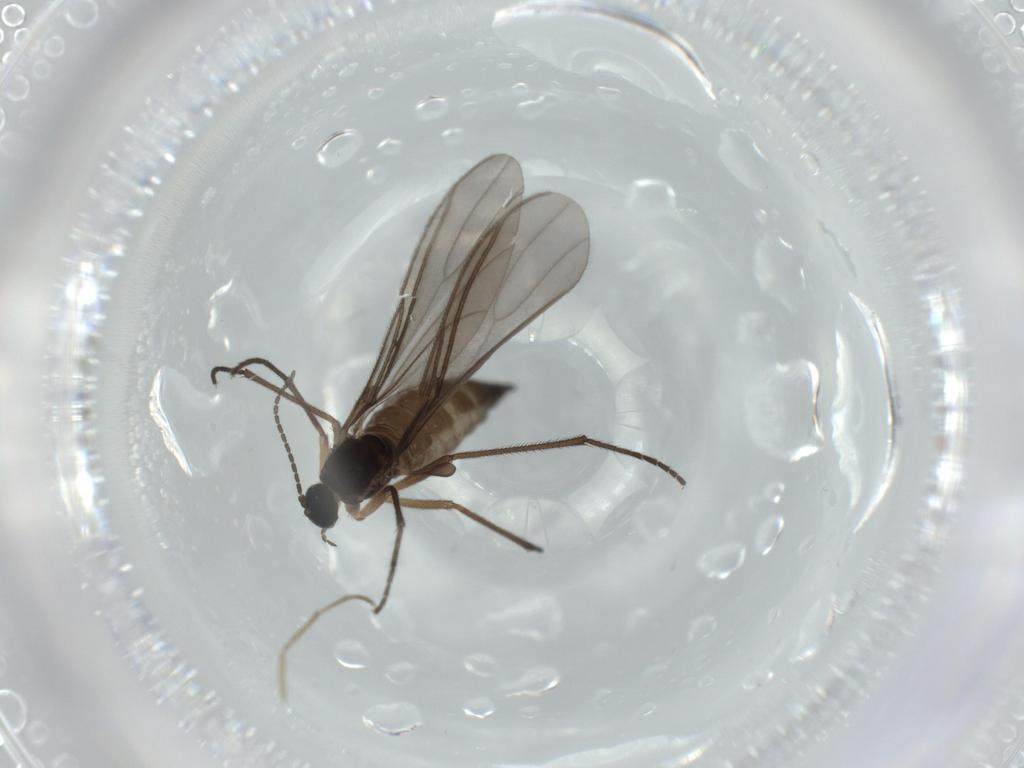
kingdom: Animalia
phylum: Arthropoda
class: Insecta
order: Diptera
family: Sciaridae
